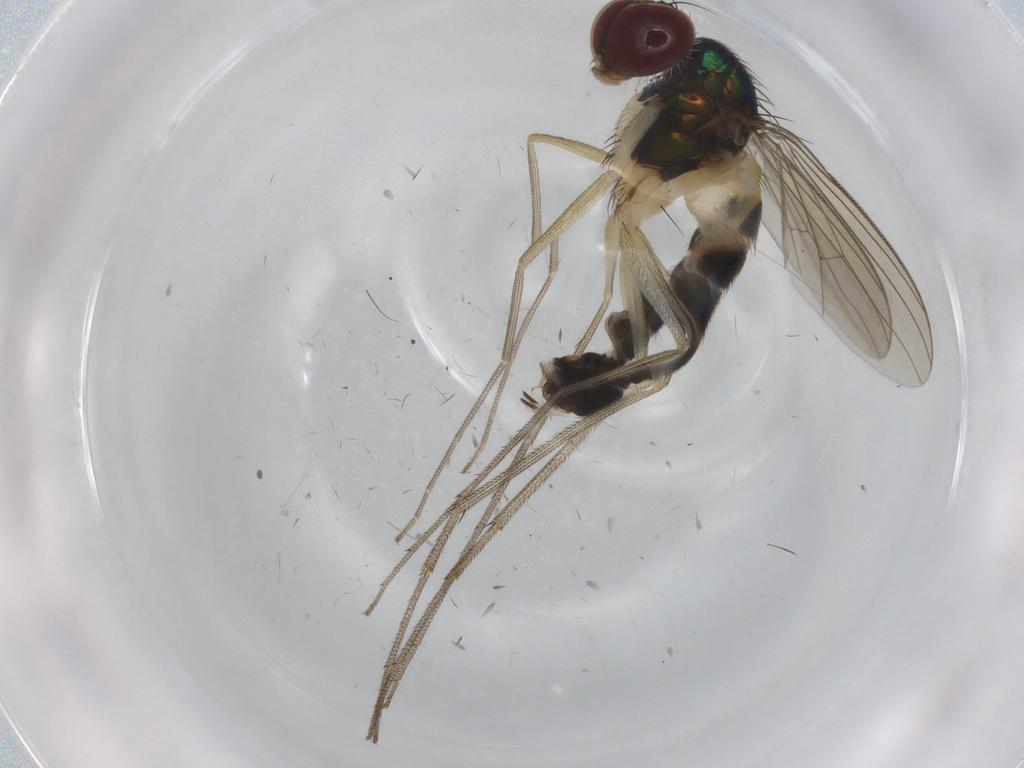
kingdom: Animalia
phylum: Arthropoda
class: Insecta
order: Diptera
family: Dolichopodidae
